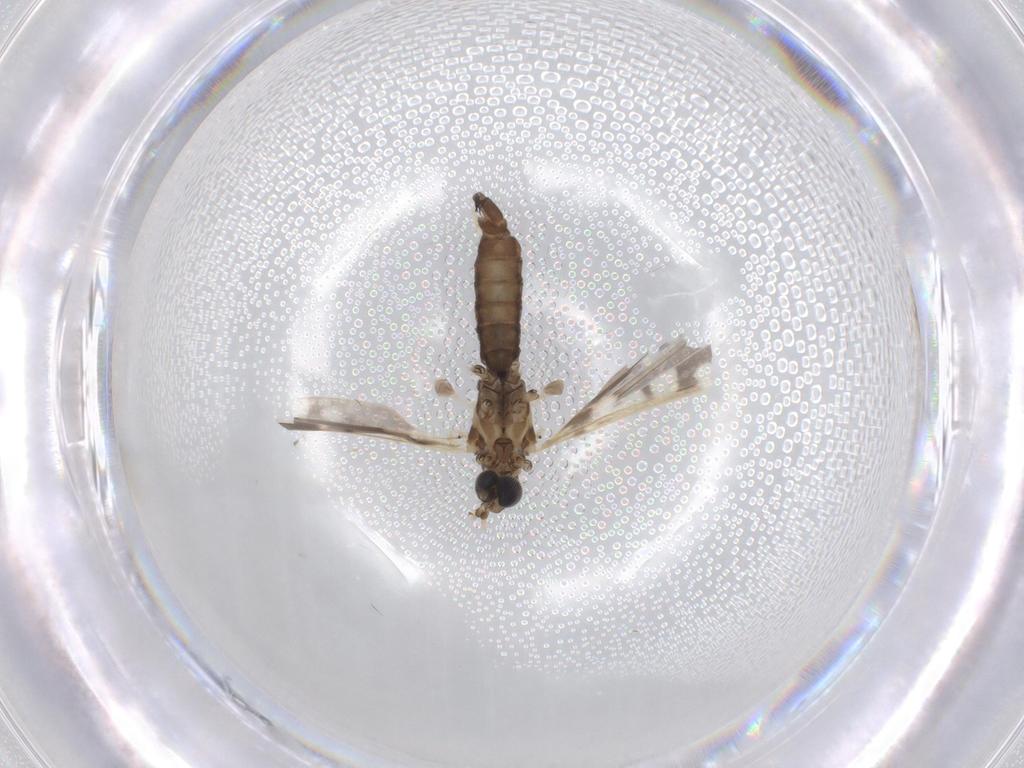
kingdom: Animalia
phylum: Arthropoda
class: Insecta
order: Diptera
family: Limoniidae
